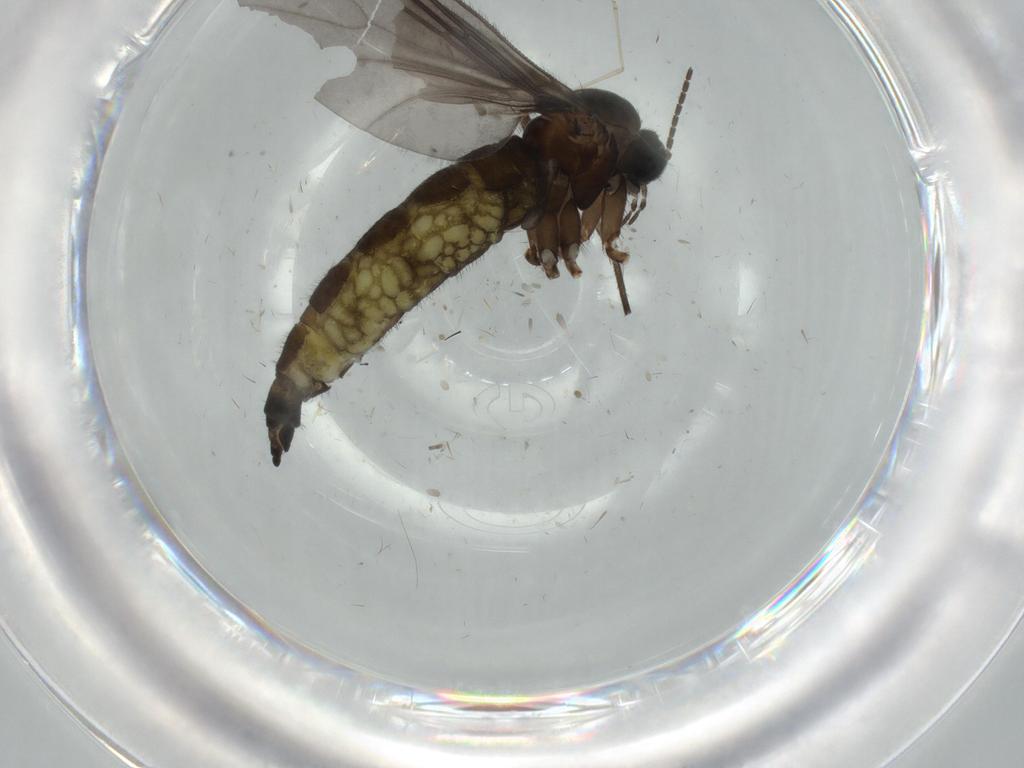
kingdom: Animalia
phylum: Arthropoda
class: Insecta
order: Diptera
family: Sciaridae
